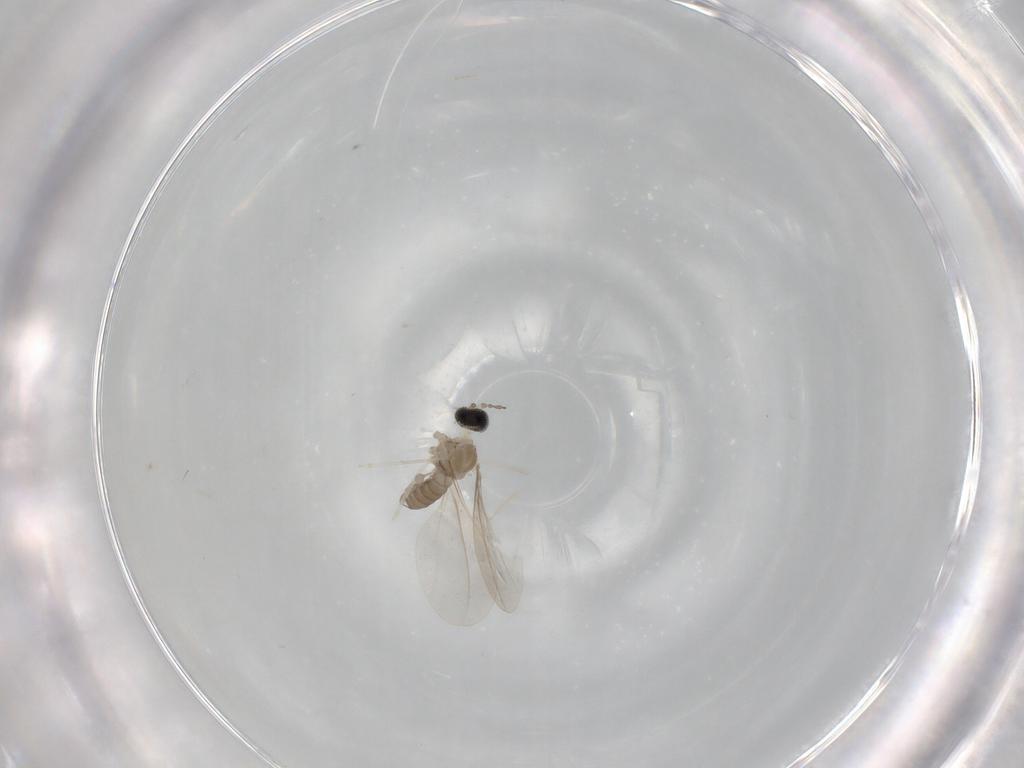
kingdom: Animalia
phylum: Arthropoda
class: Insecta
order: Diptera
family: Cecidomyiidae
